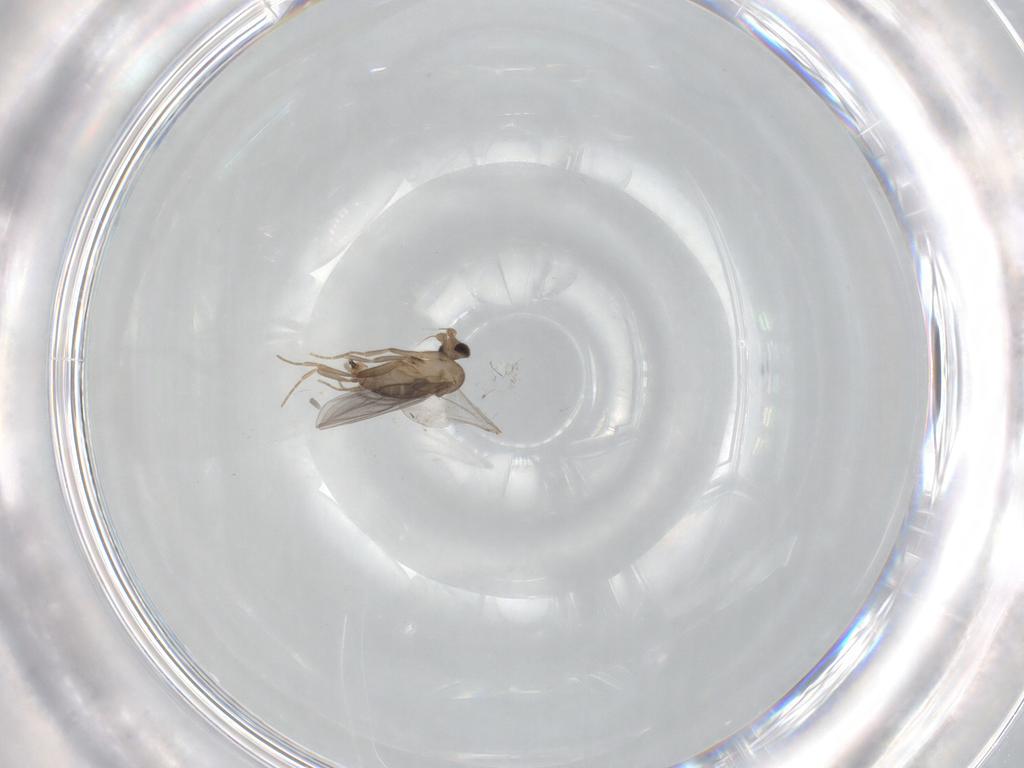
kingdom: Animalia
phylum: Arthropoda
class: Insecta
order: Diptera
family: Cecidomyiidae
